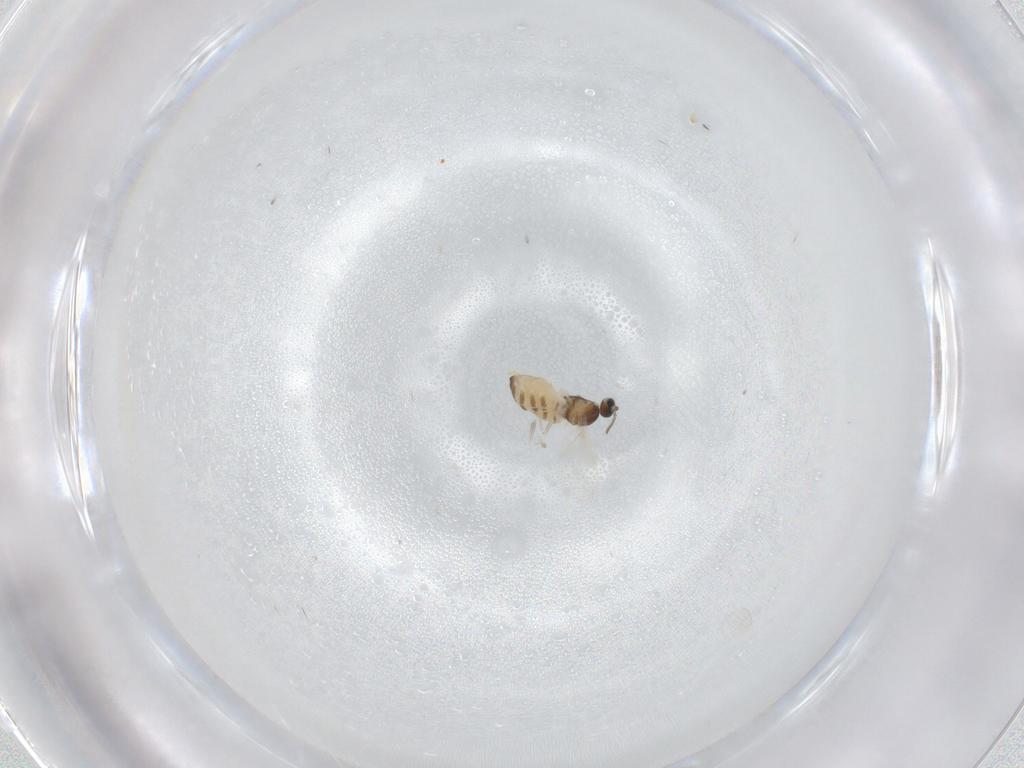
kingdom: Animalia
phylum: Arthropoda
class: Insecta
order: Diptera
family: Cecidomyiidae
